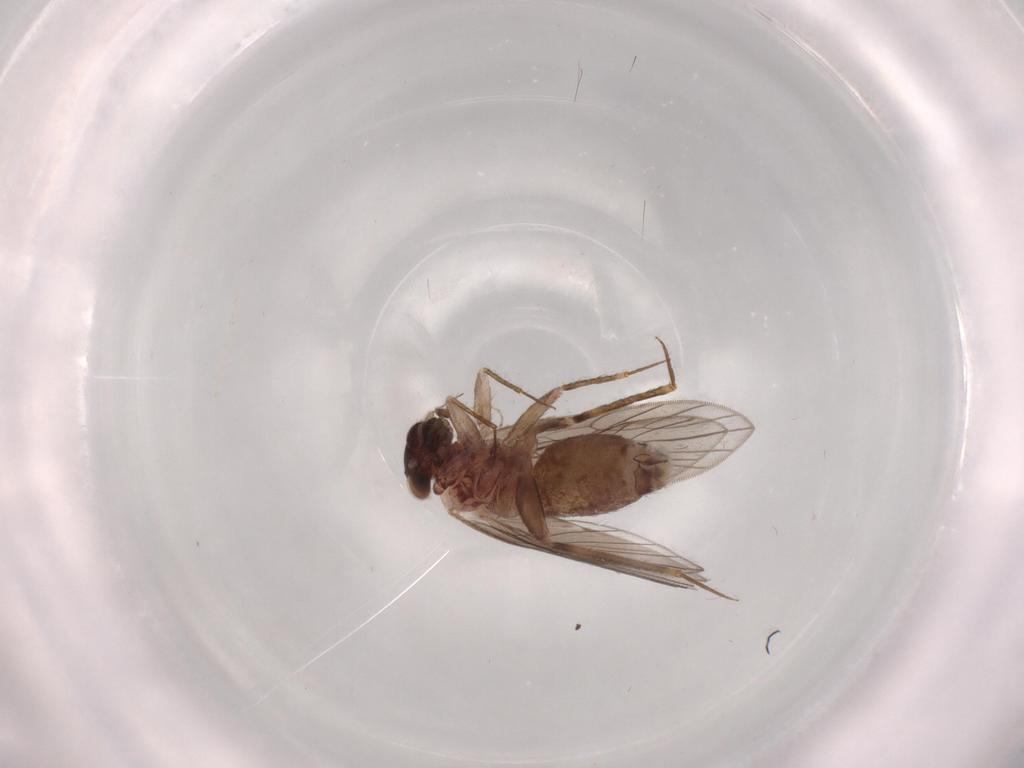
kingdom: Animalia
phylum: Arthropoda
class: Insecta
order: Psocodea
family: Lepidopsocidae
